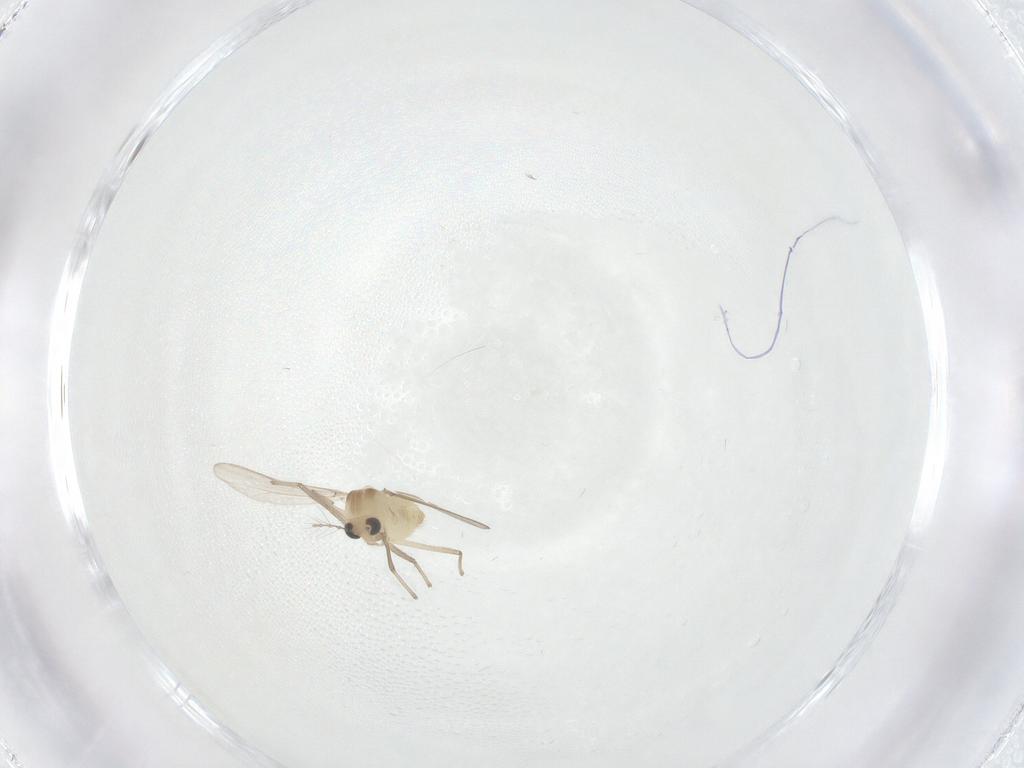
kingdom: Animalia
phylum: Arthropoda
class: Insecta
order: Diptera
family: Chironomidae
